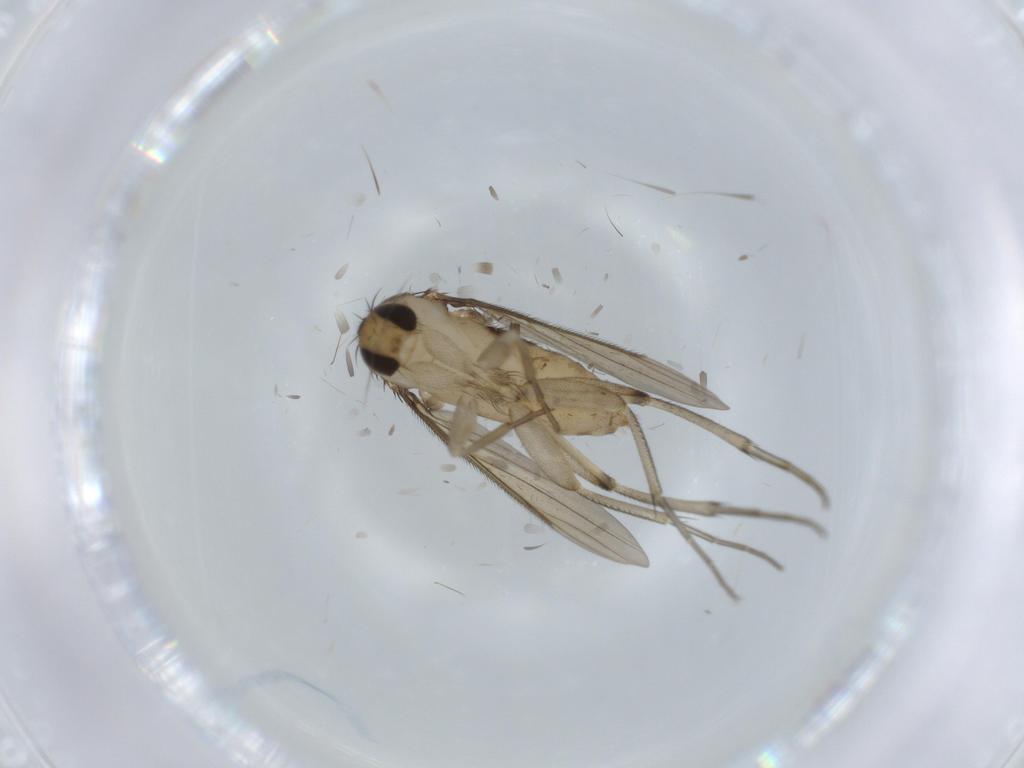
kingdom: Animalia
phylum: Arthropoda
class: Insecta
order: Diptera
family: Phoridae
